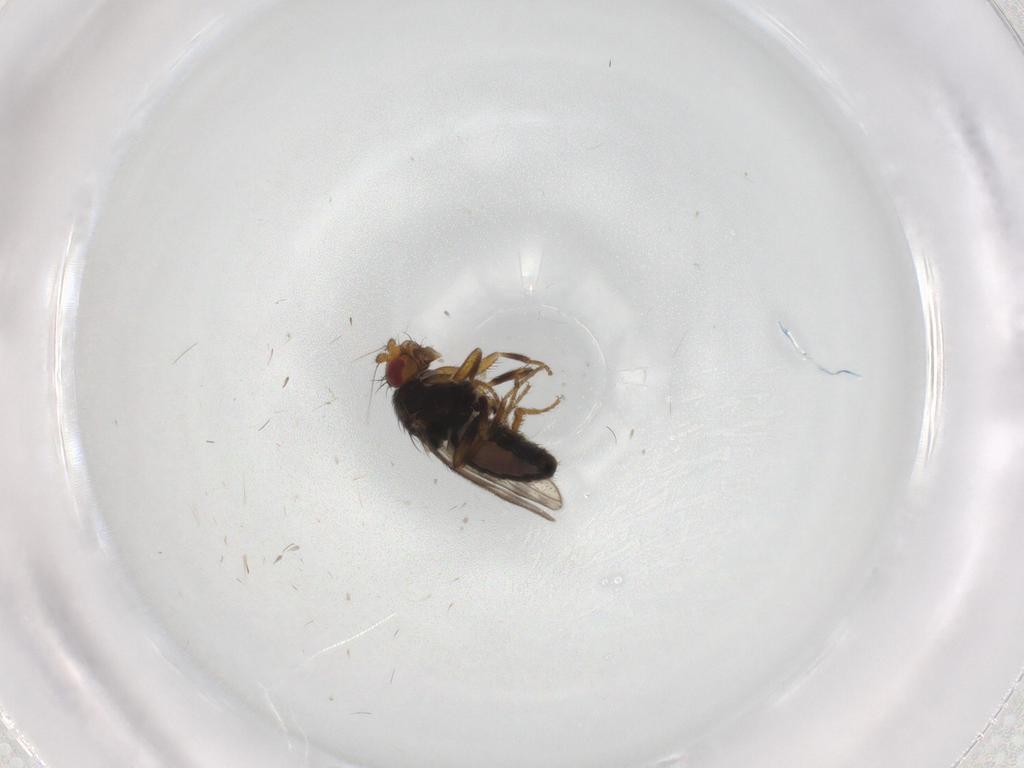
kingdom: Animalia
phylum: Arthropoda
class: Insecta
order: Diptera
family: Sphaeroceridae
